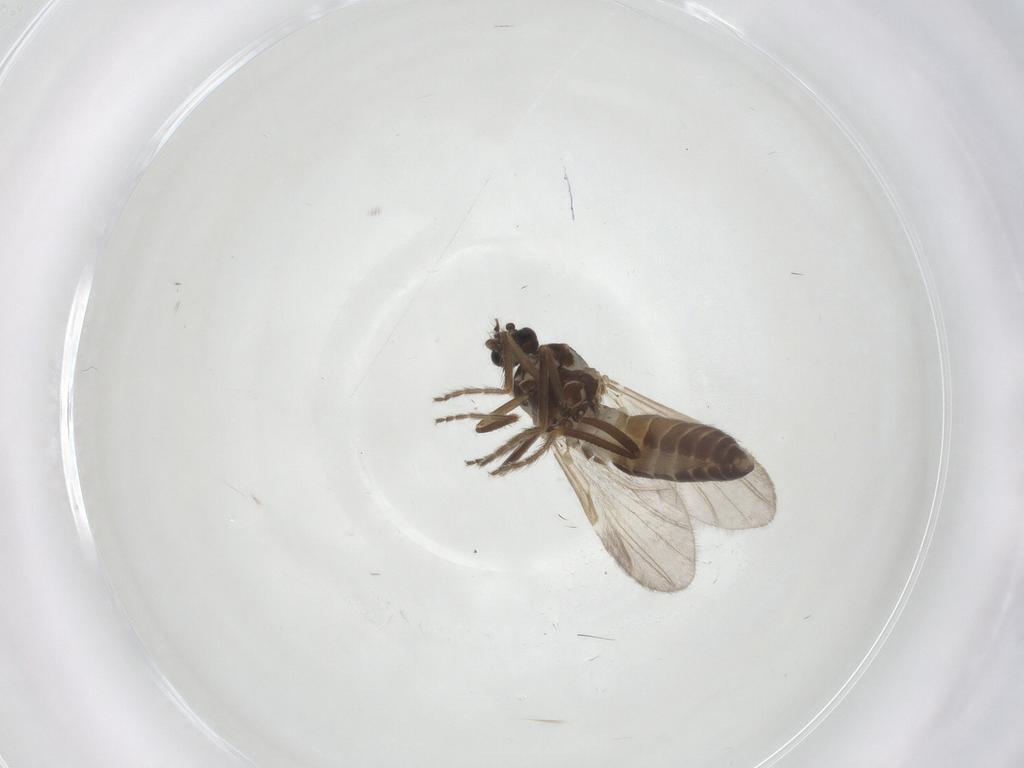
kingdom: Animalia
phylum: Arthropoda
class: Insecta
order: Diptera
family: Ceratopogonidae
